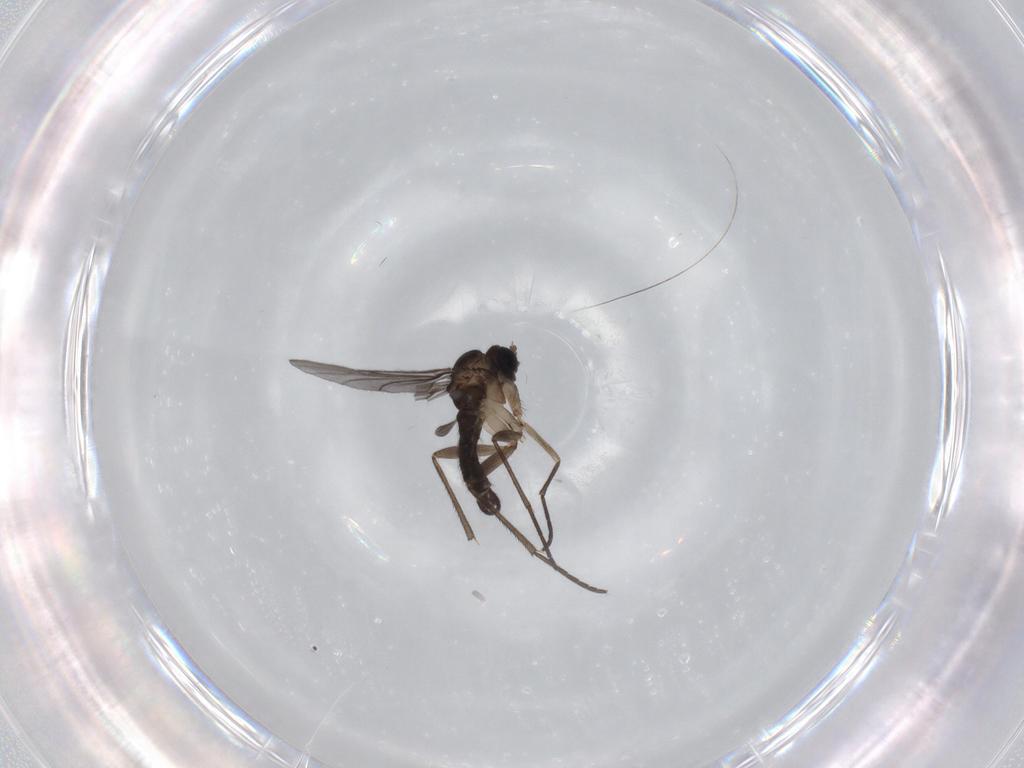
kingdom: Animalia
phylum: Arthropoda
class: Insecta
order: Diptera
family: Sciaridae
